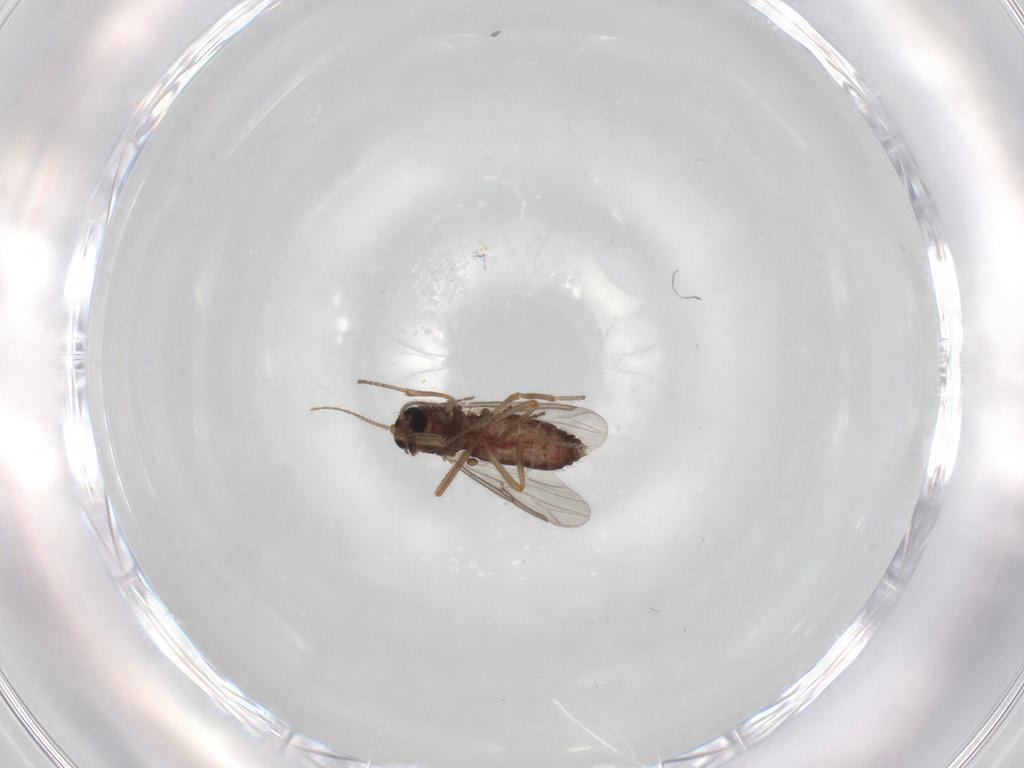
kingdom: Animalia
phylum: Arthropoda
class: Insecta
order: Diptera
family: Ceratopogonidae
